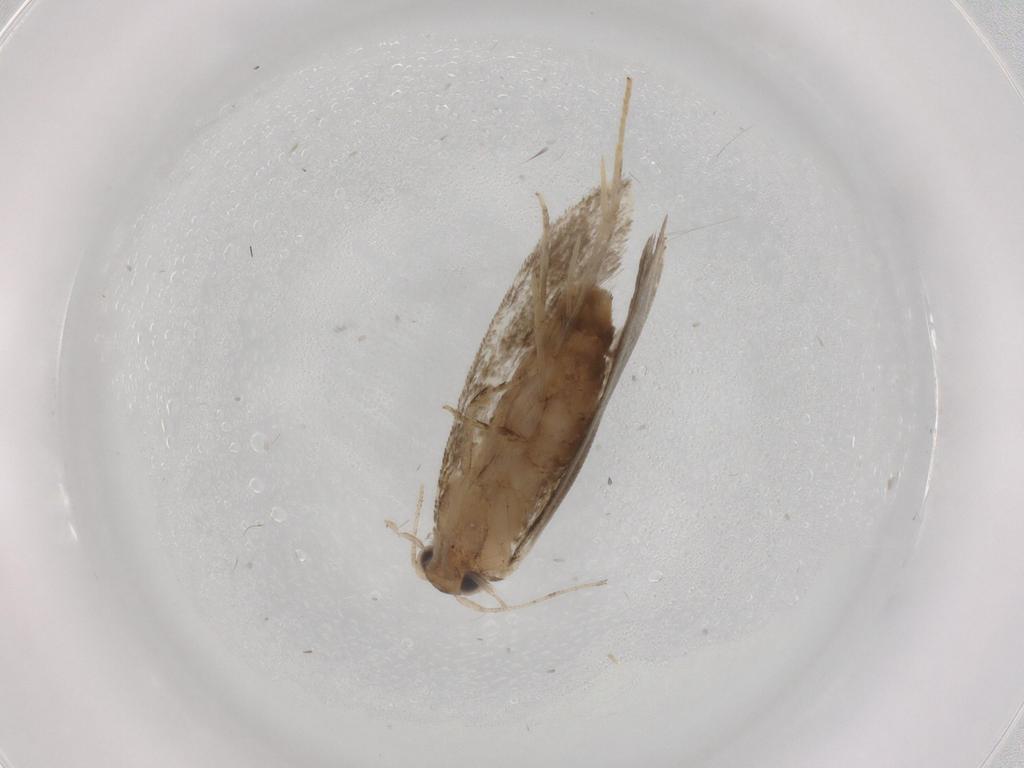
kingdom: Animalia
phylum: Arthropoda
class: Insecta
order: Lepidoptera
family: Tineidae
